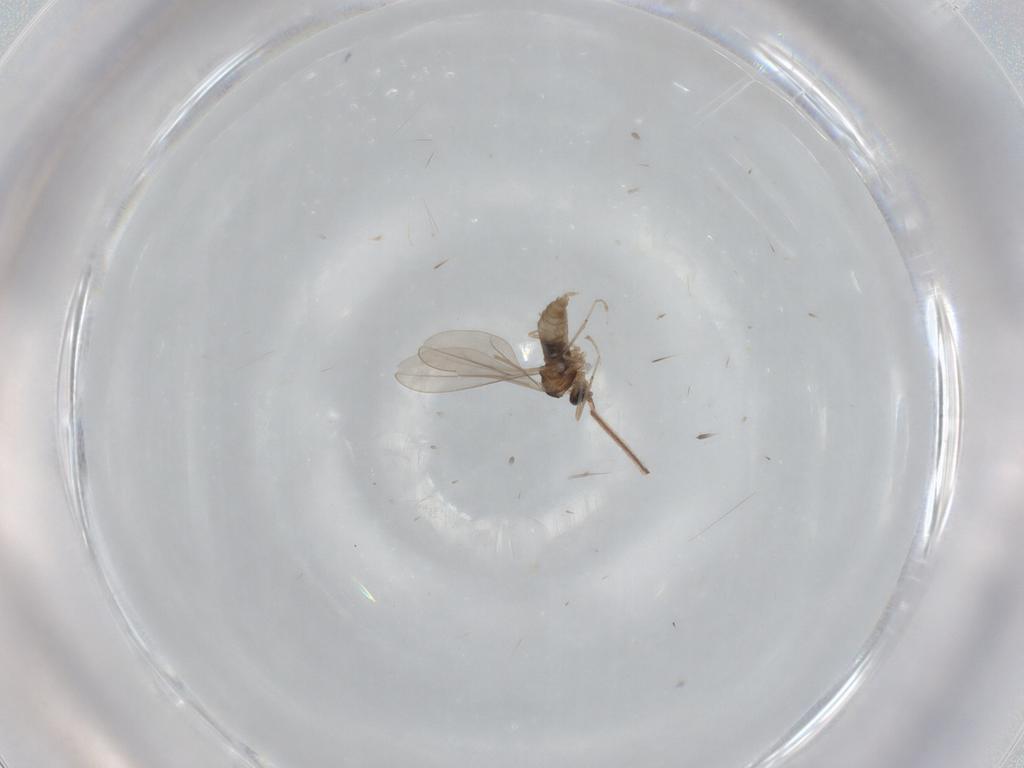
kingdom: Animalia
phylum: Arthropoda
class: Insecta
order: Diptera
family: Cecidomyiidae
